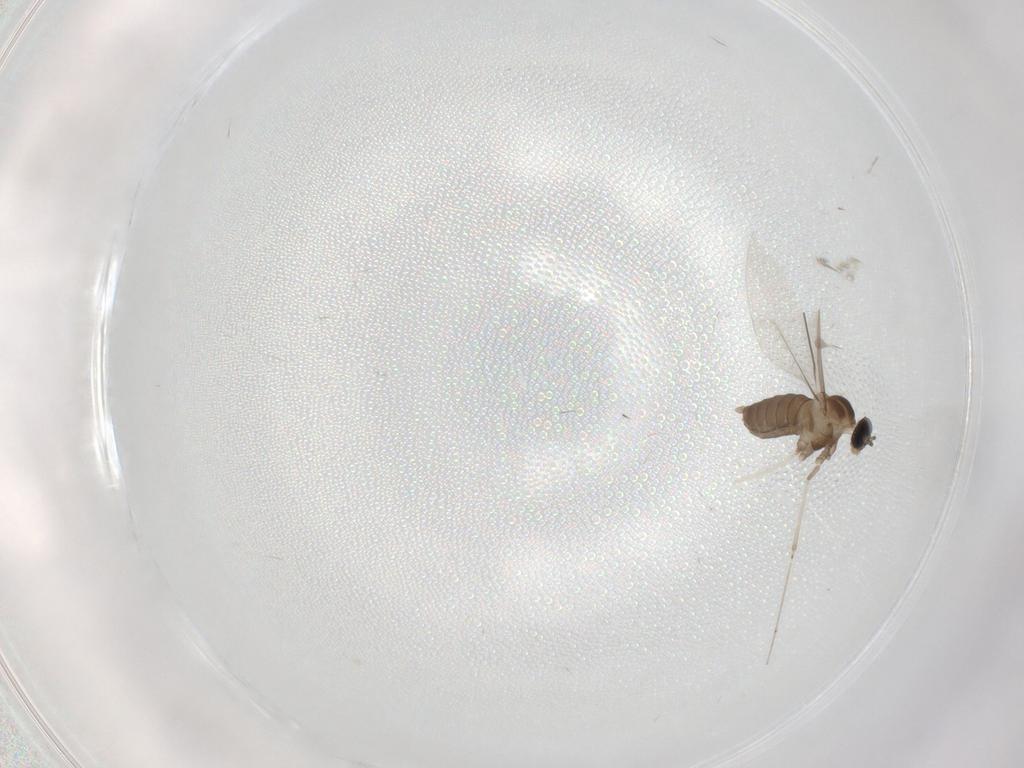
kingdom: Animalia
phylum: Arthropoda
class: Insecta
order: Diptera
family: Cecidomyiidae
